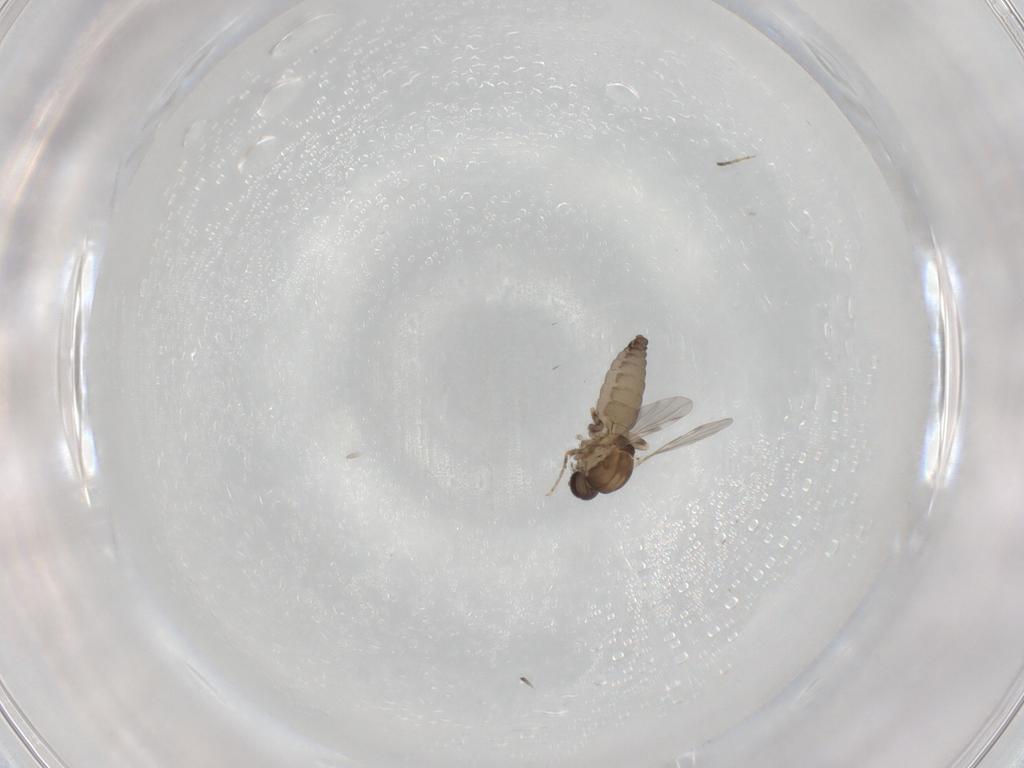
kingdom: Animalia
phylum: Arthropoda
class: Insecta
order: Diptera
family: Ceratopogonidae
